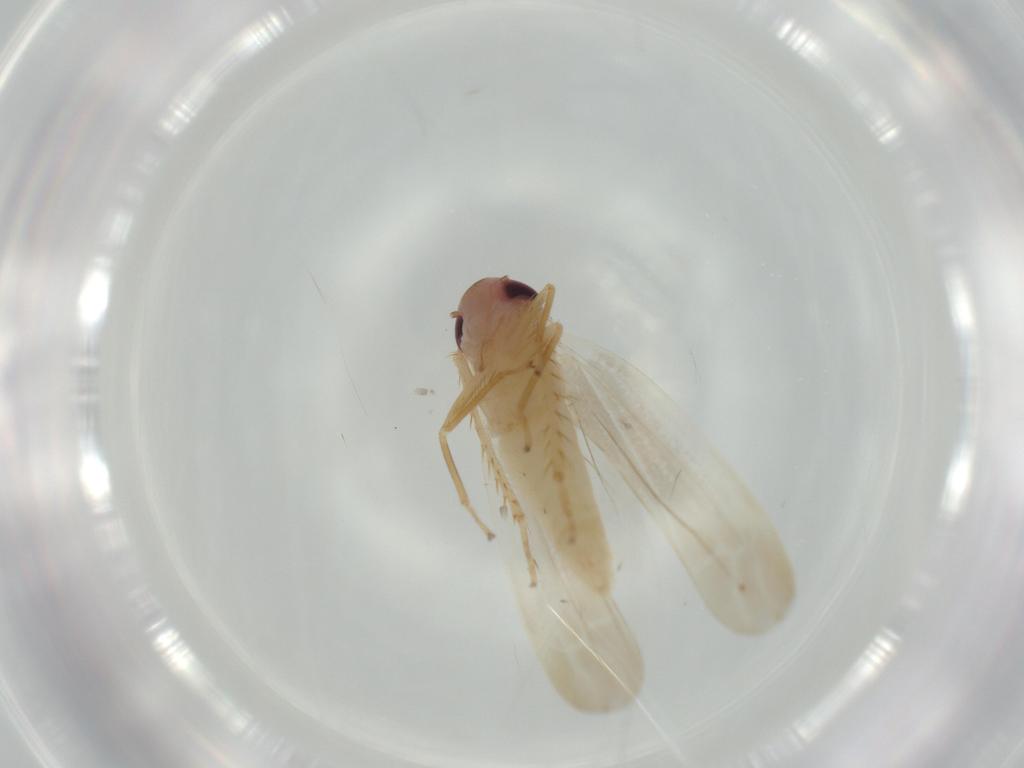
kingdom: Animalia
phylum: Arthropoda
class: Insecta
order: Hemiptera
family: Cicadellidae
